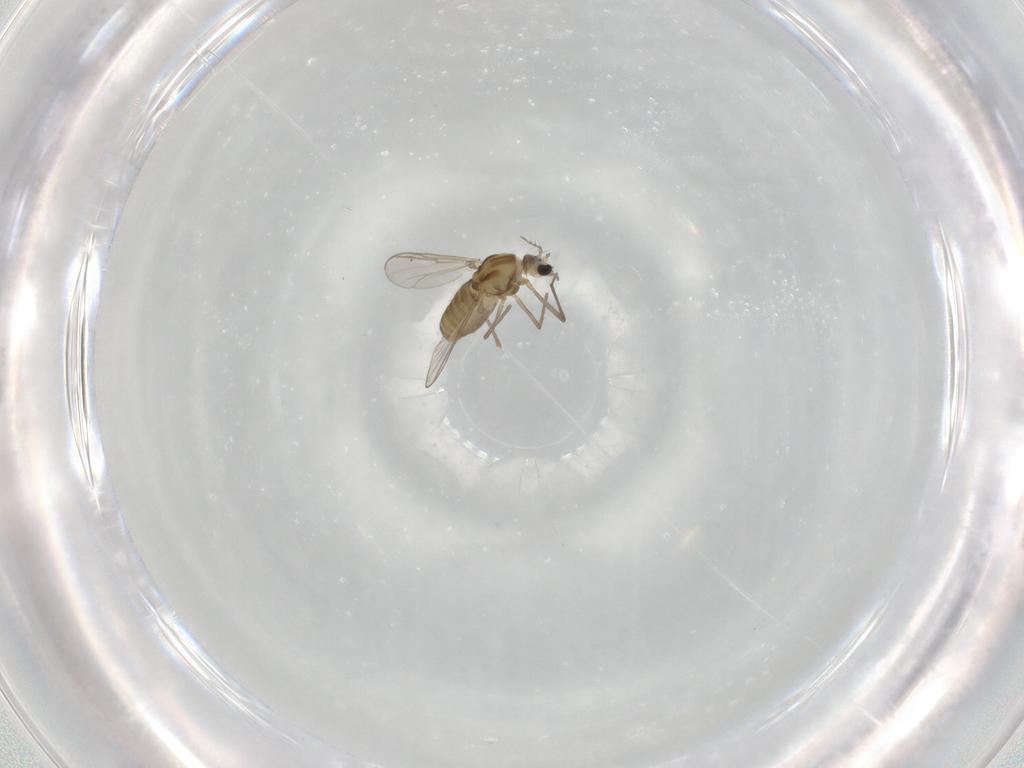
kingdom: Animalia
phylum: Arthropoda
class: Insecta
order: Diptera
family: Chironomidae
